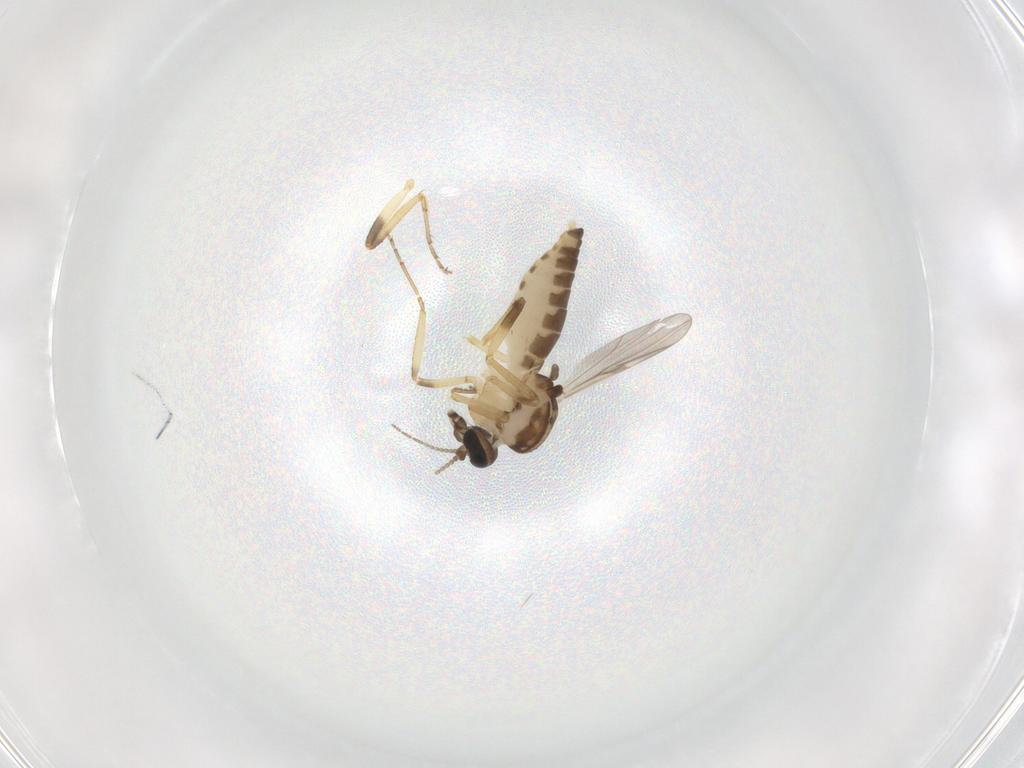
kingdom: Animalia
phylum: Arthropoda
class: Insecta
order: Diptera
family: Ceratopogonidae
